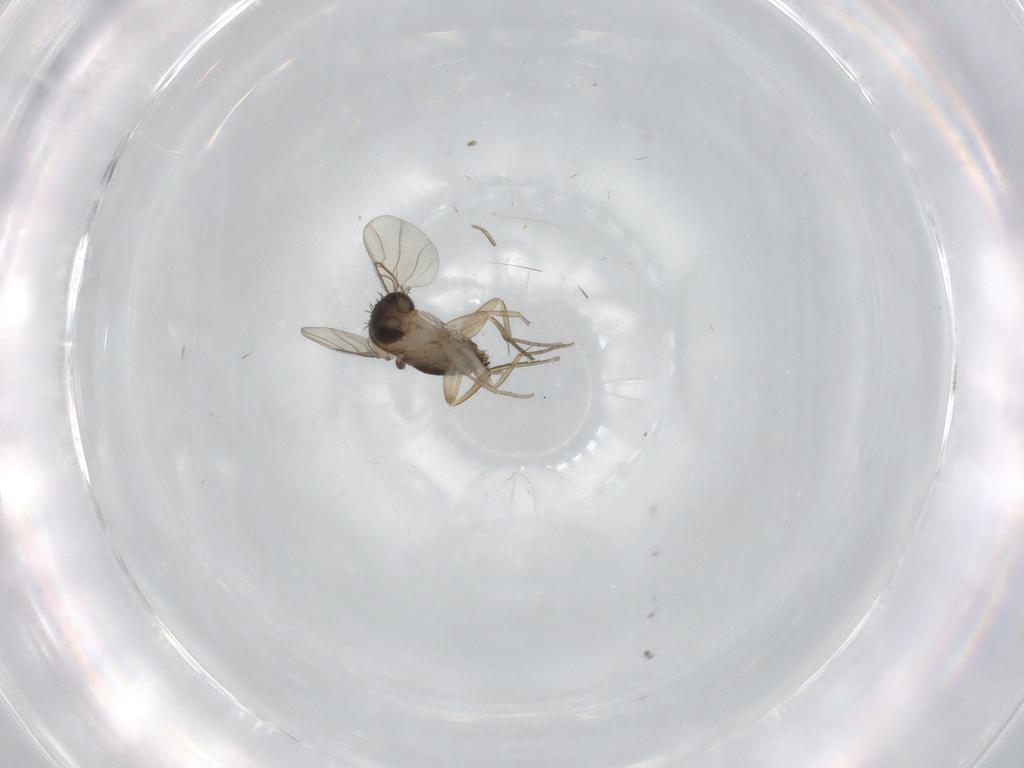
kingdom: Animalia
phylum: Arthropoda
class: Insecta
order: Diptera
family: Phoridae
